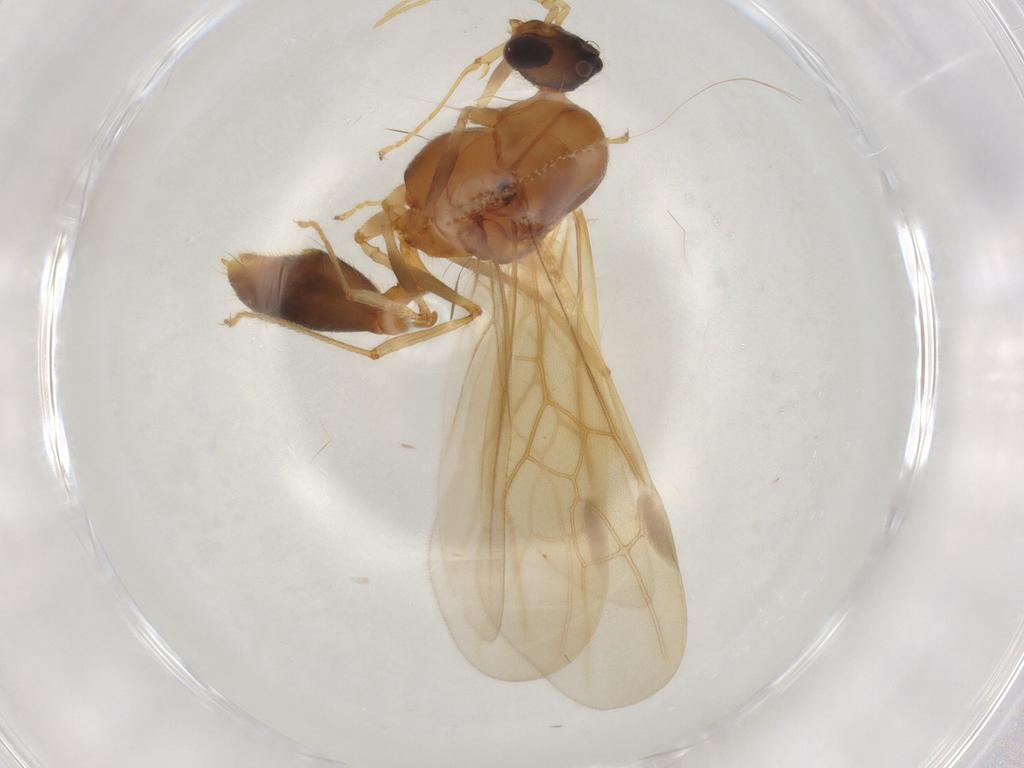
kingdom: Animalia
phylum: Arthropoda
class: Insecta
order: Hymenoptera
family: Formicidae
